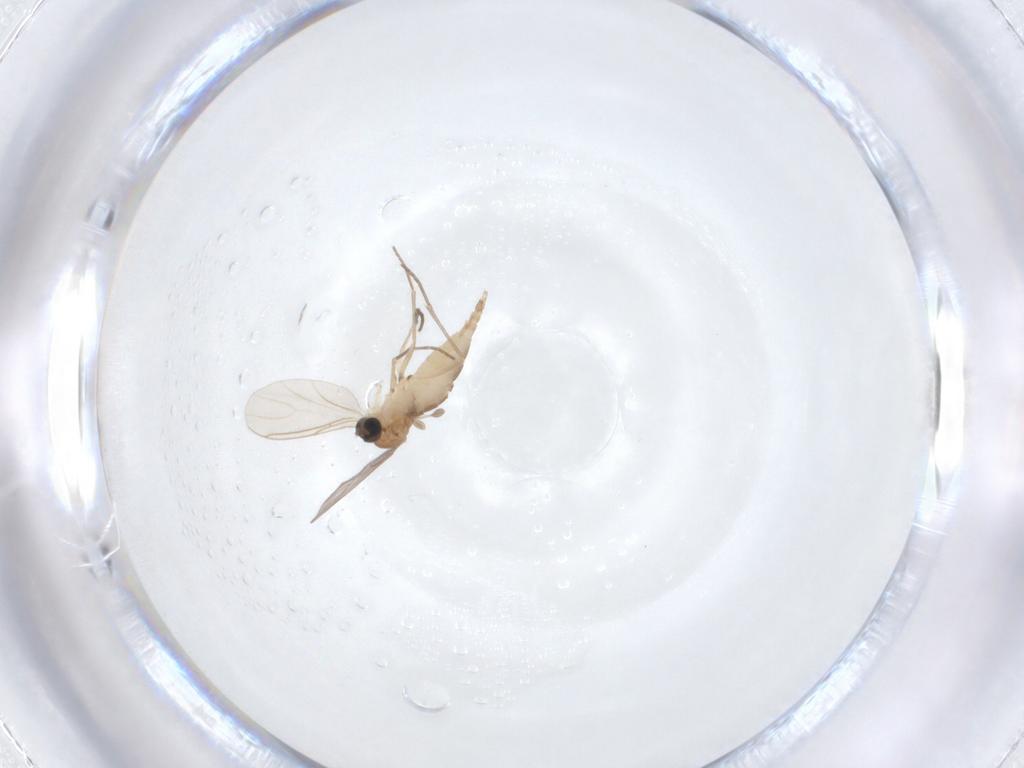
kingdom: Animalia
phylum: Arthropoda
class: Insecta
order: Diptera
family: Sciaridae
